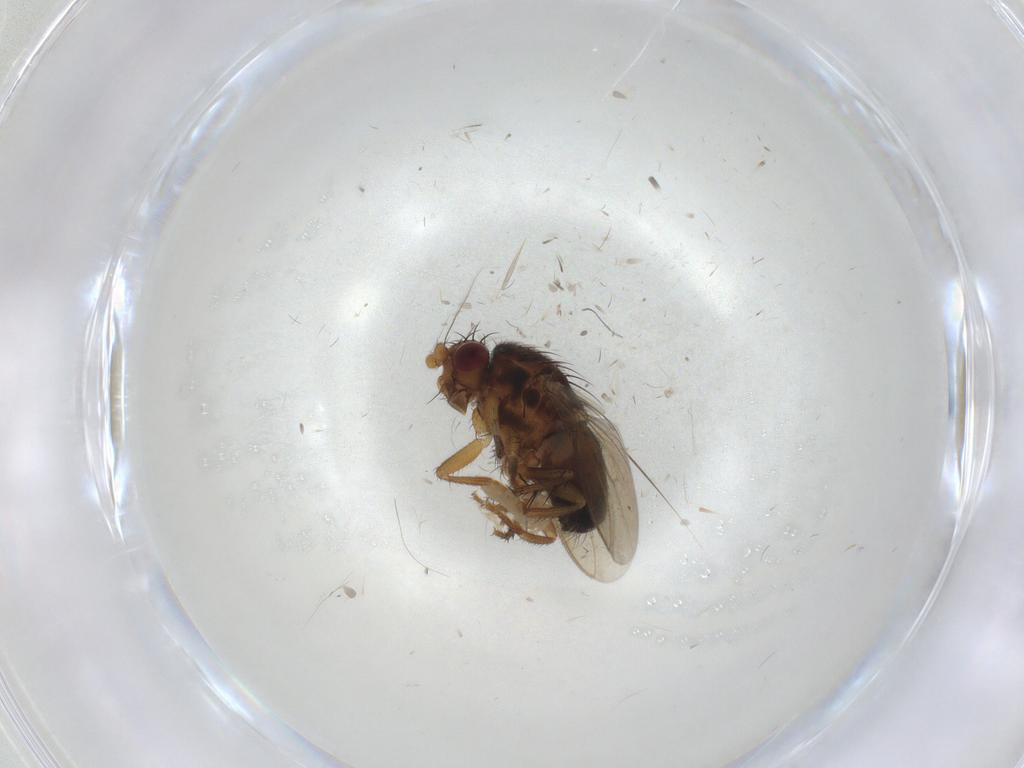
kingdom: Animalia
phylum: Arthropoda
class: Insecta
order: Diptera
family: Sphaeroceridae
